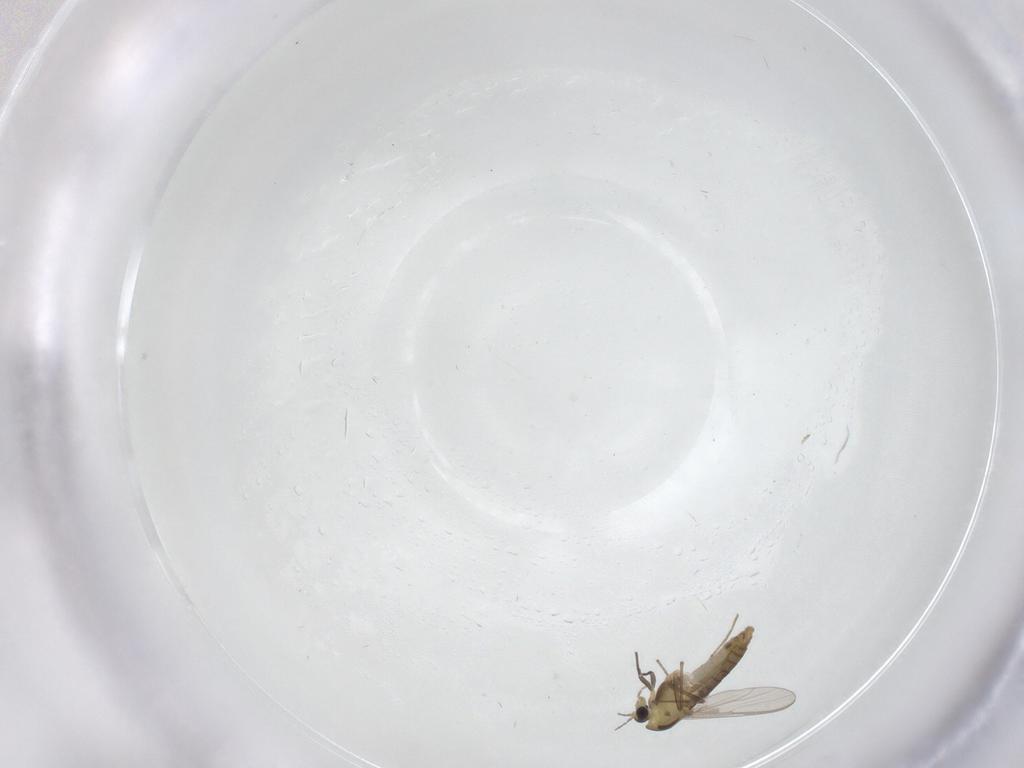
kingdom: Animalia
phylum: Arthropoda
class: Insecta
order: Diptera
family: Chironomidae
